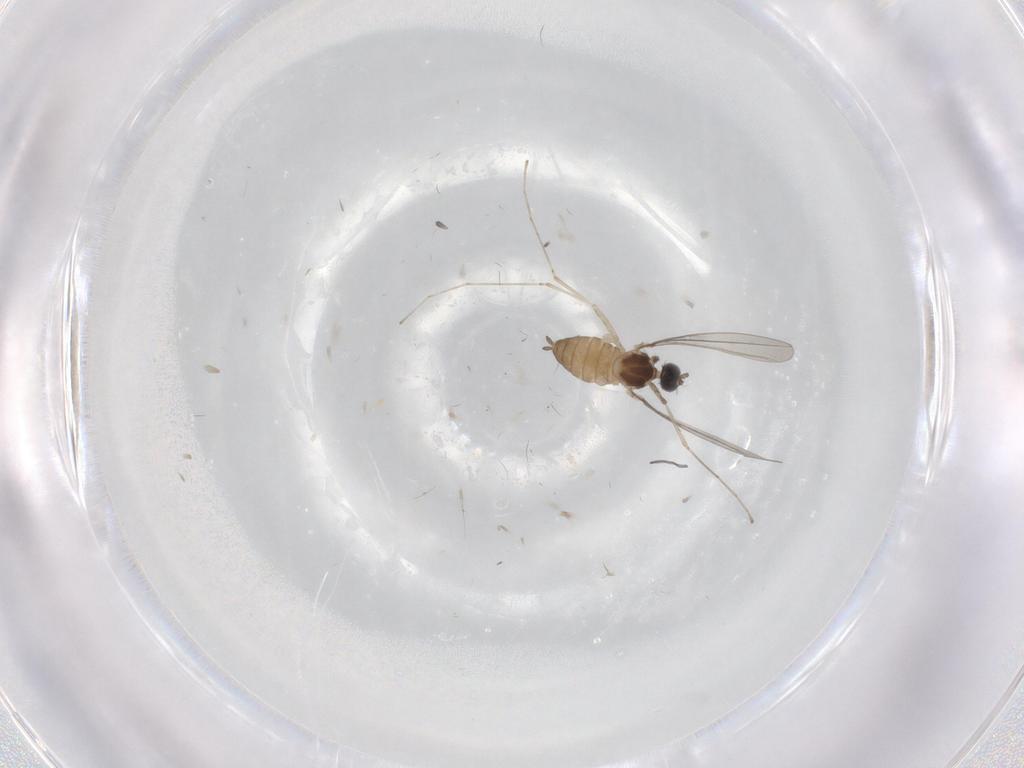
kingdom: Animalia
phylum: Arthropoda
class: Insecta
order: Diptera
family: Cecidomyiidae
